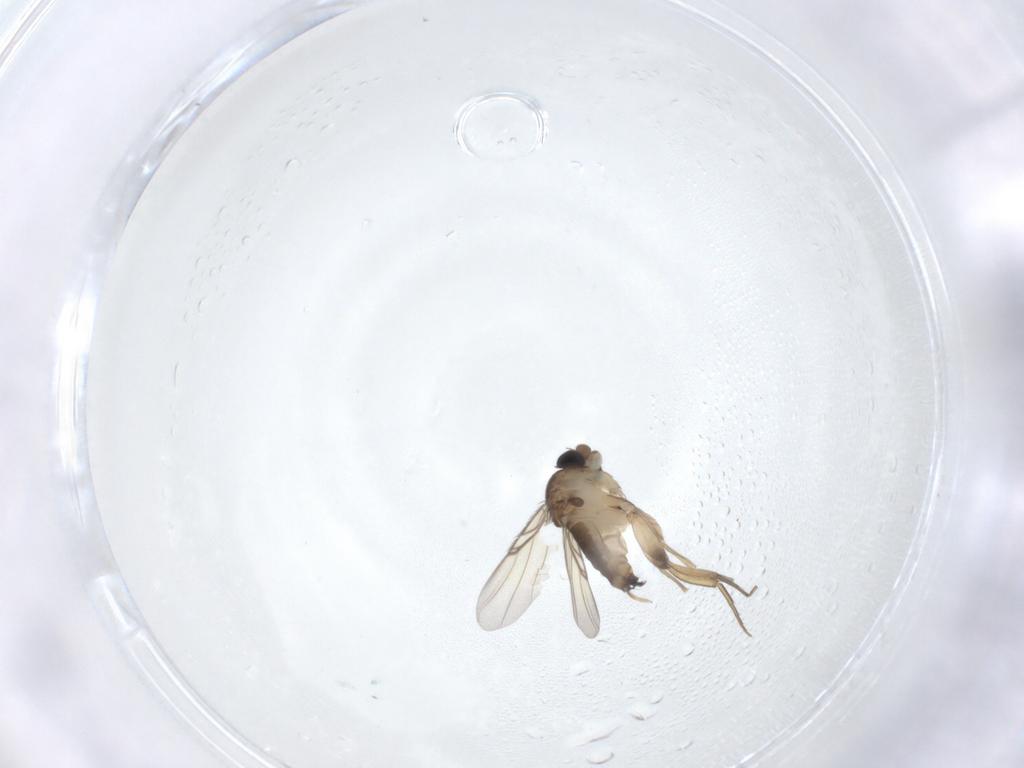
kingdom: Animalia
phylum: Arthropoda
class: Insecta
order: Diptera
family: Phoridae
